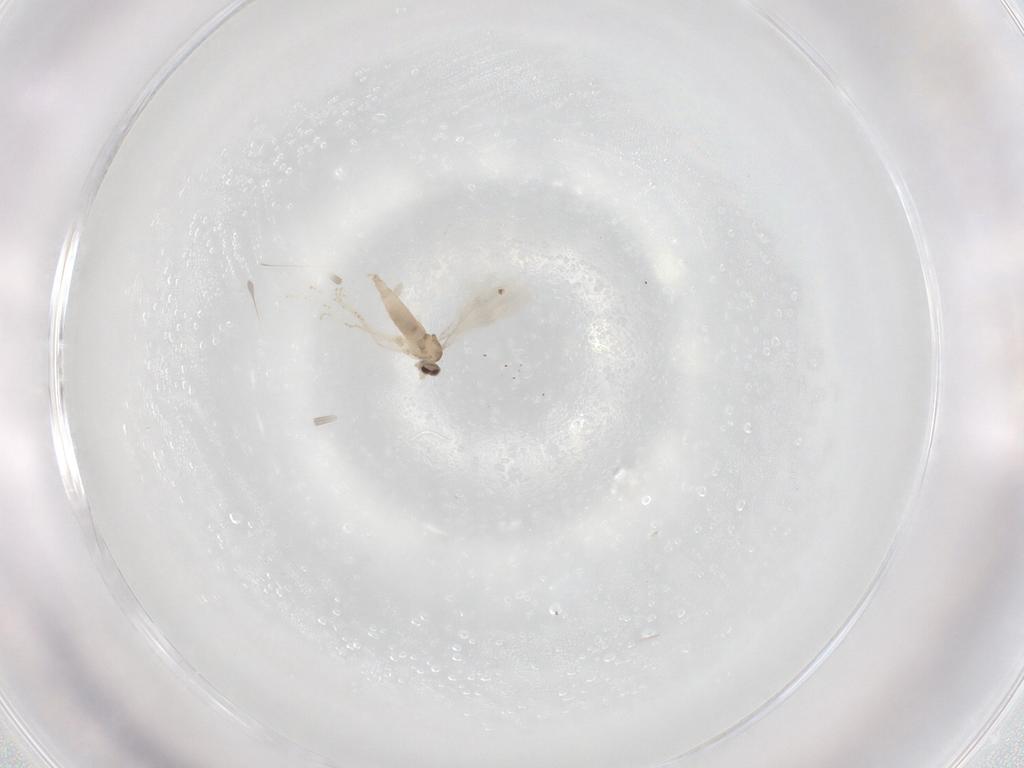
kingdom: Animalia
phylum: Arthropoda
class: Insecta
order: Diptera
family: Cecidomyiidae
